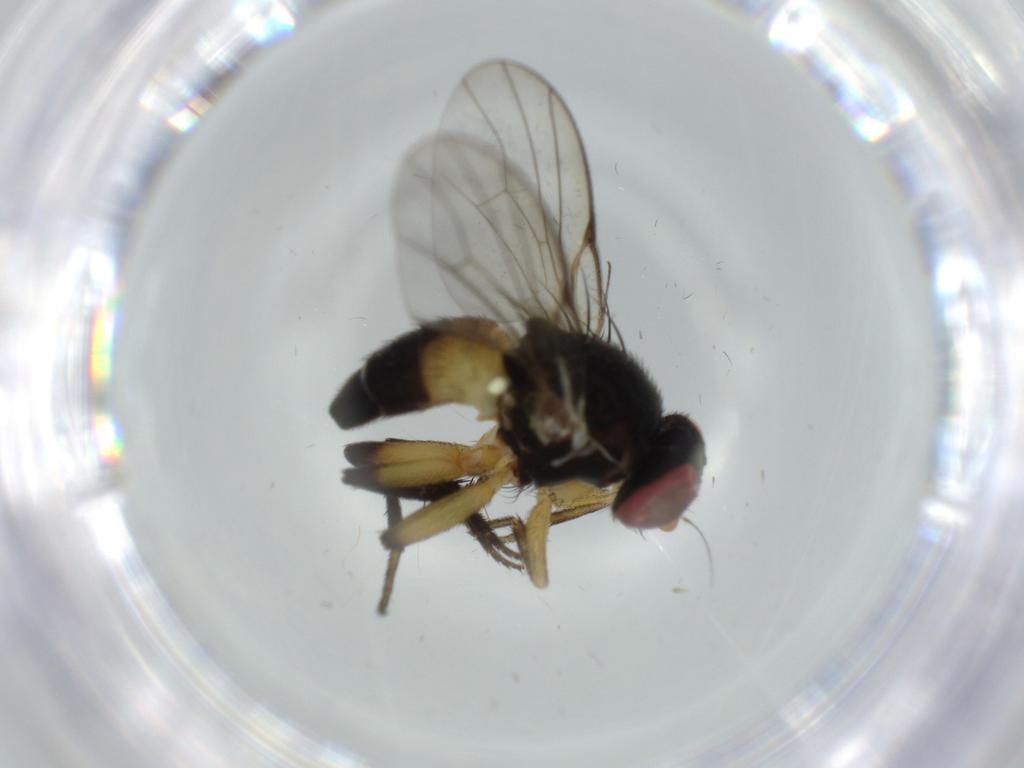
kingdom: Animalia
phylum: Arthropoda
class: Insecta
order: Diptera
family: Agromyzidae
